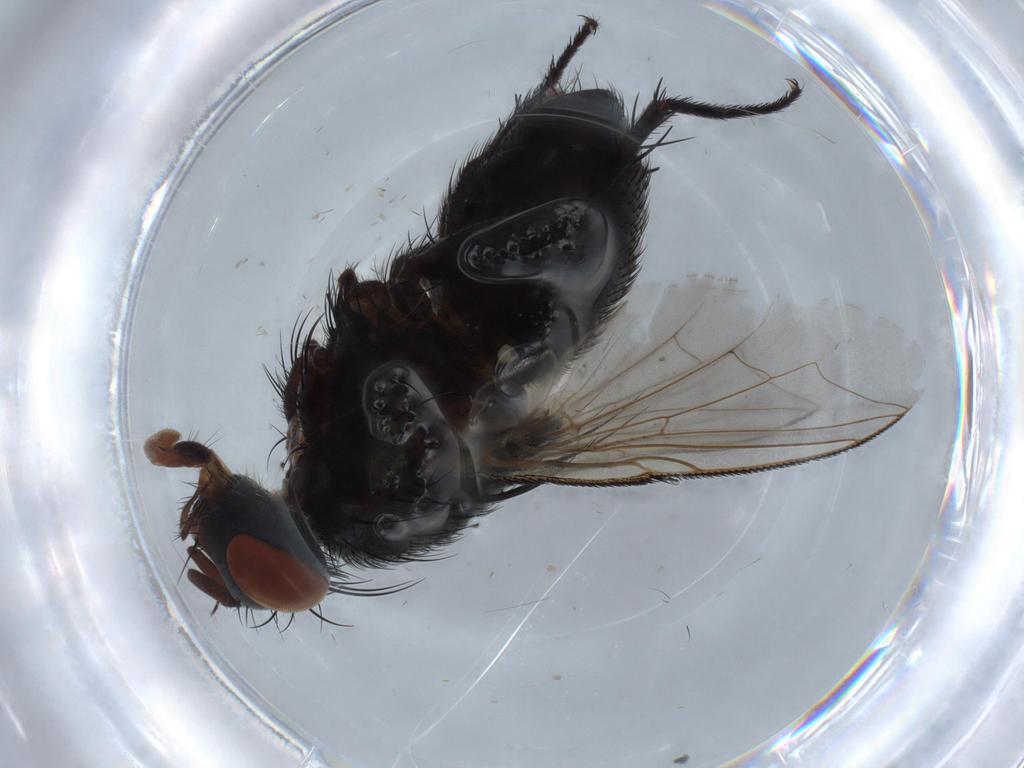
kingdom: Animalia
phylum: Arthropoda
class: Insecta
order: Diptera
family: Sarcophagidae
